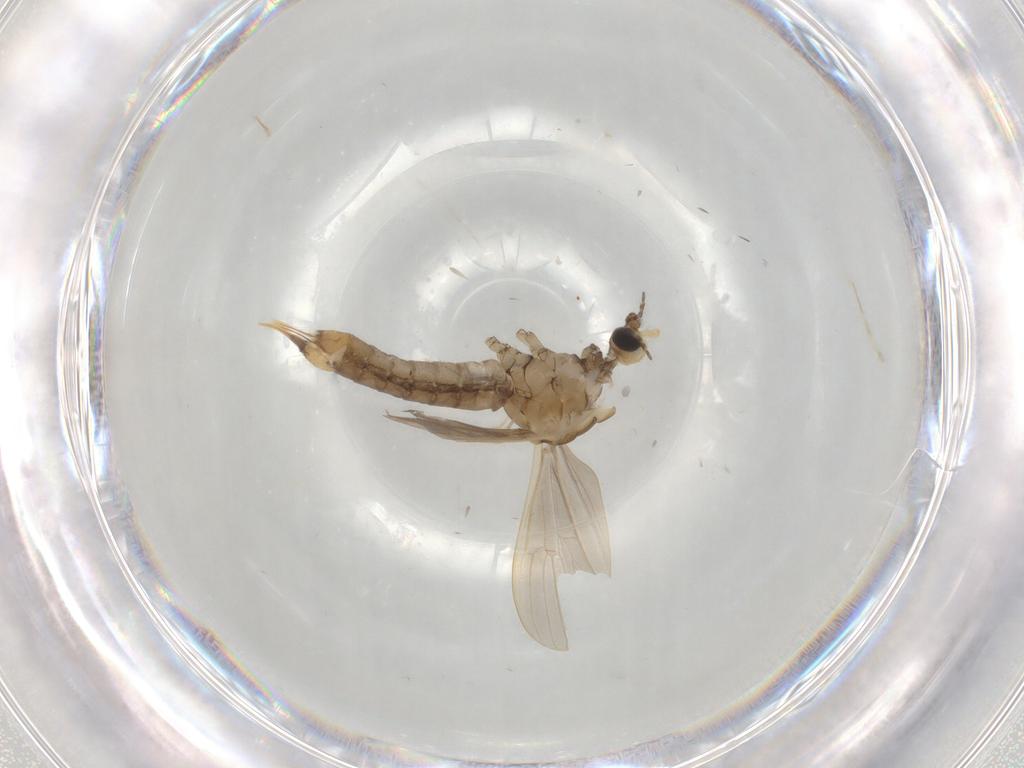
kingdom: Animalia
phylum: Arthropoda
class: Insecta
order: Diptera
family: Limoniidae
